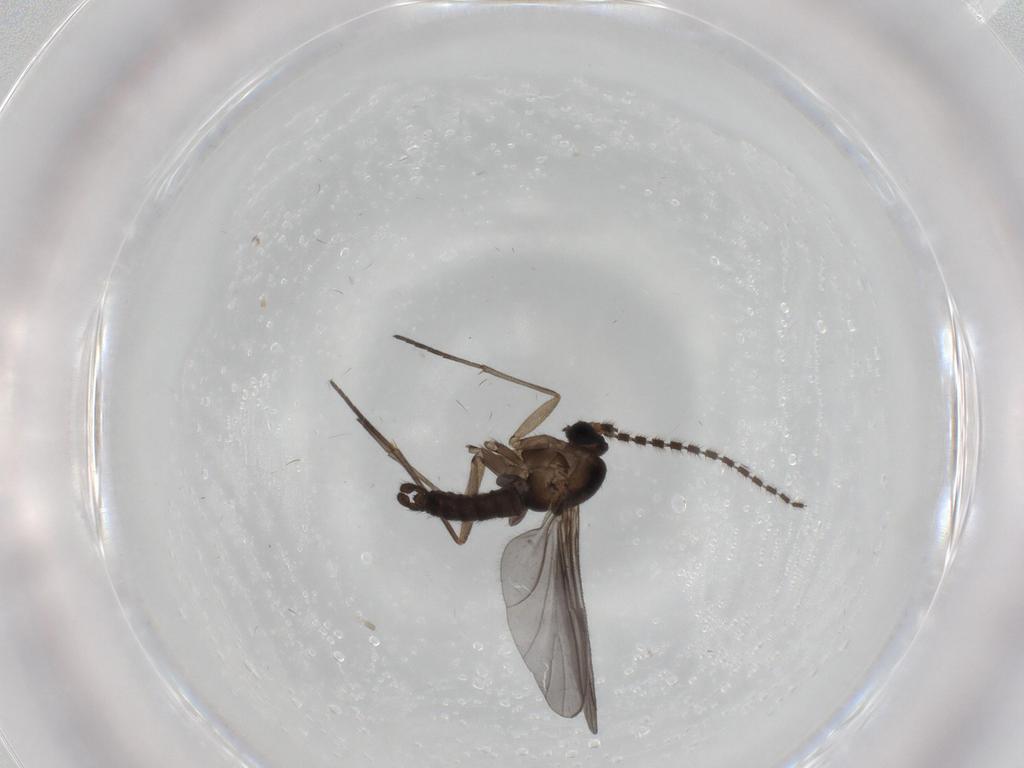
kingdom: Animalia
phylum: Arthropoda
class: Insecta
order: Diptera
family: Sciaridae
